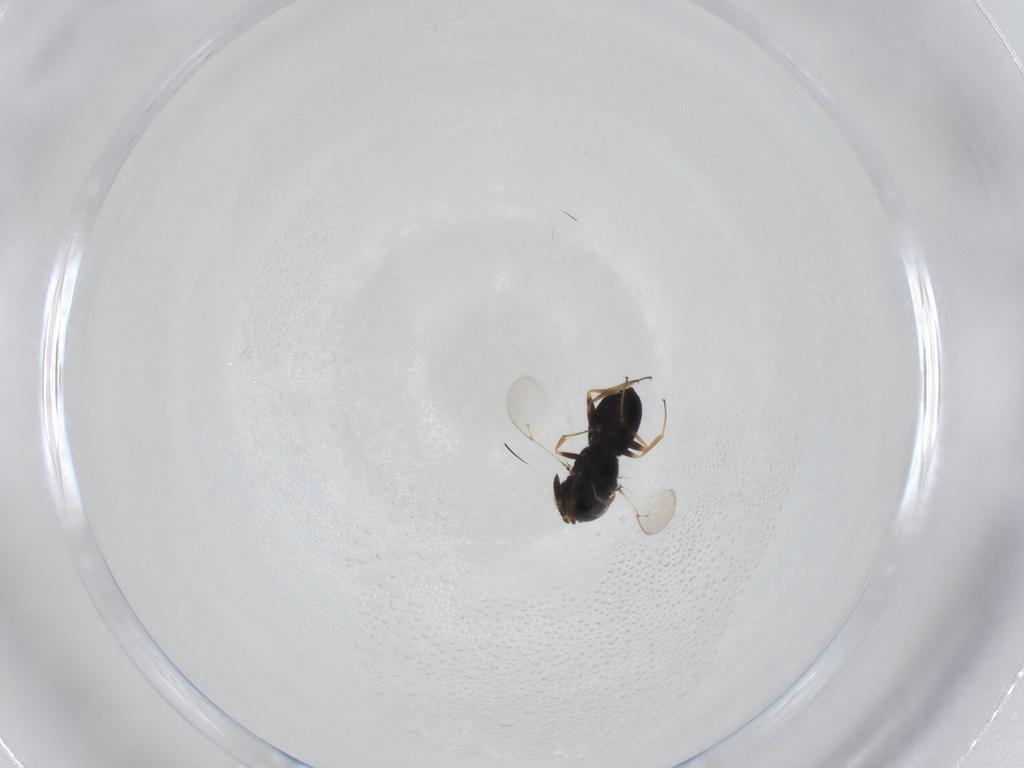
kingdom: Animalia
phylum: Arthropoda
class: Insecta
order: Hymenoptera
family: Scelionidae
